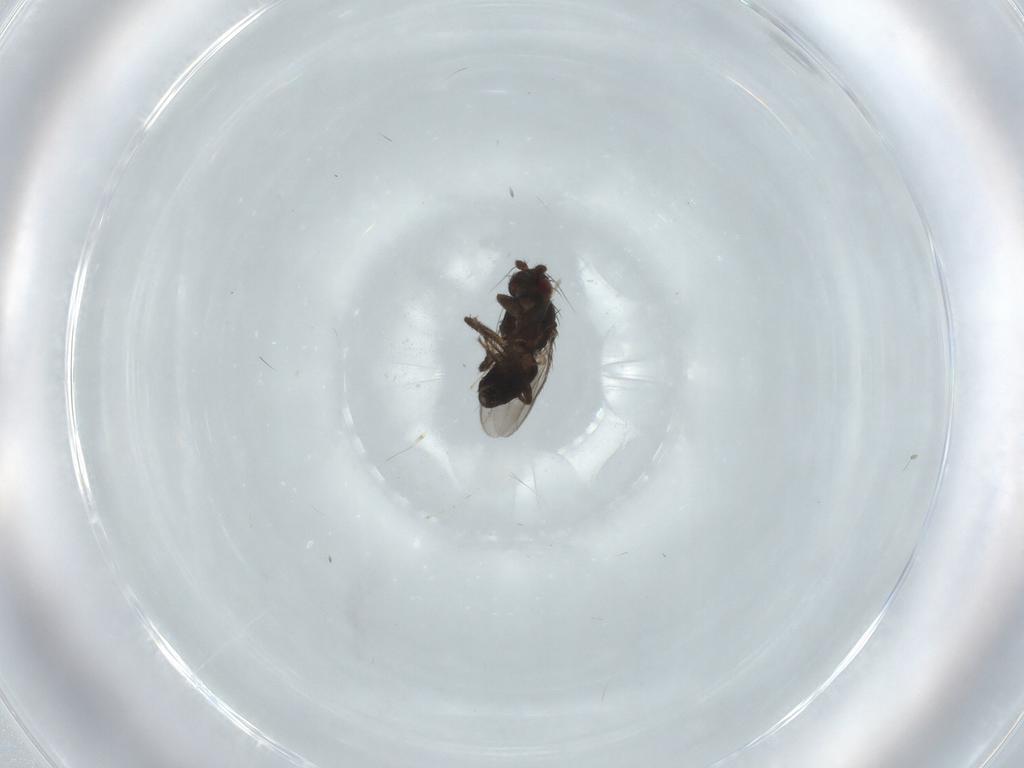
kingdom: Animalia
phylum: Arthropoda
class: Insecta
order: Diptera
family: Sphaeroceridae
